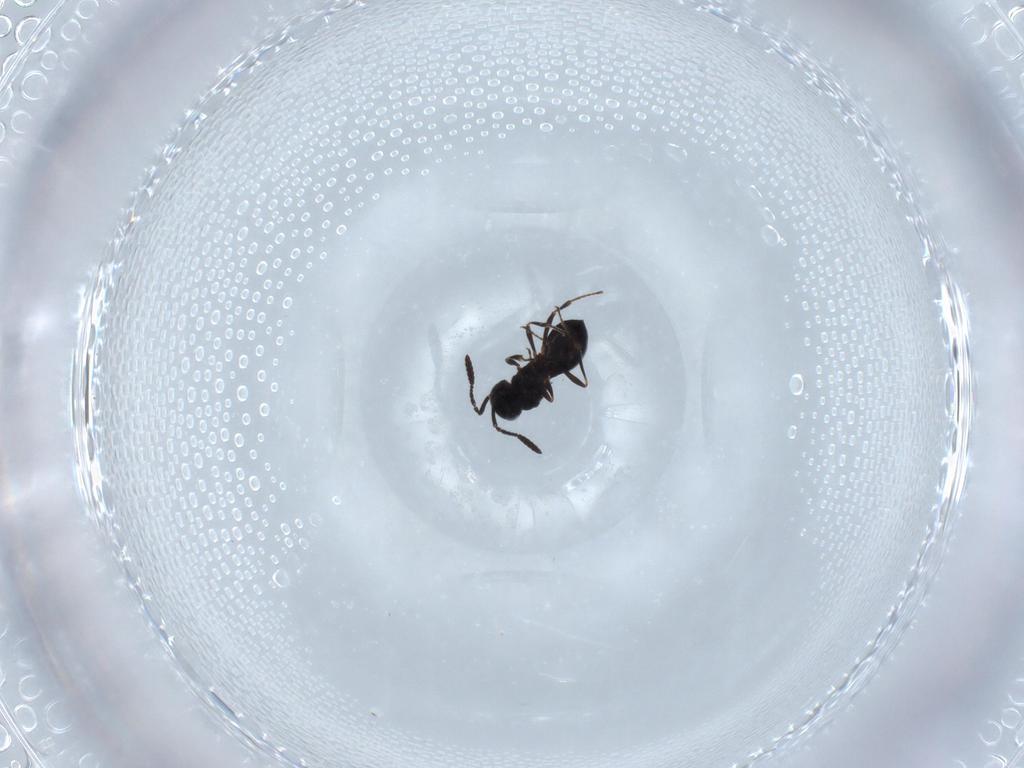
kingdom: Animalia
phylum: Arthropoda
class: Insecta
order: Hymenoptera
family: Scelionidae
